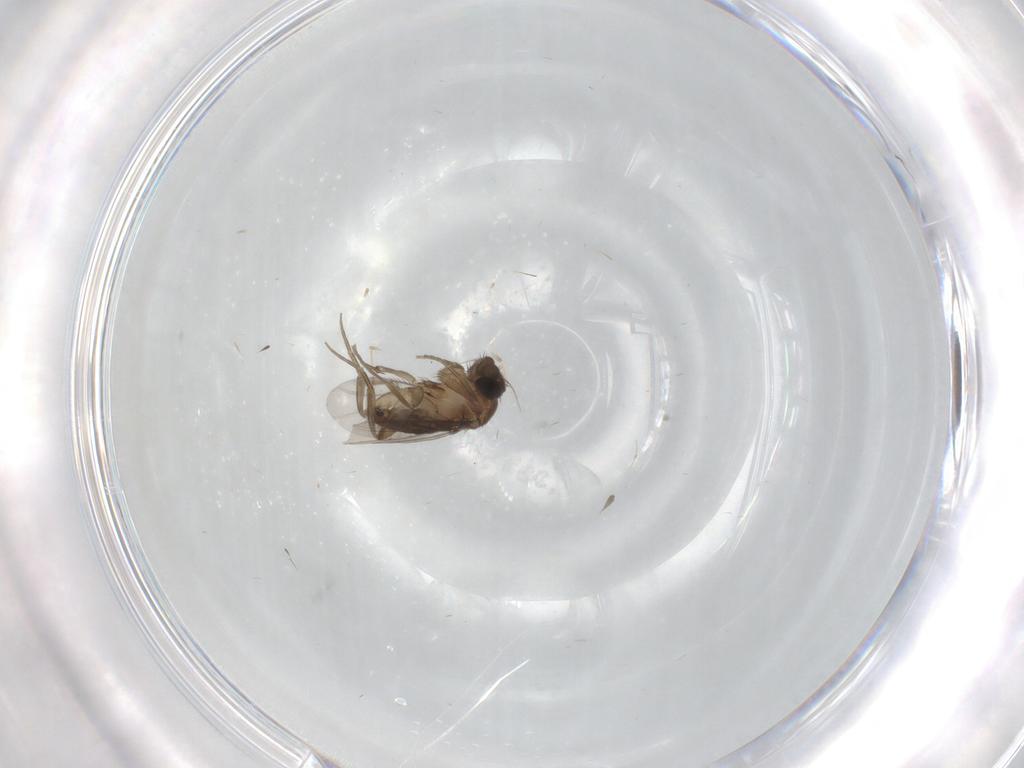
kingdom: Animalia
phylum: Arthropoda
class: Insecta
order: Diptera
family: Phoridae
